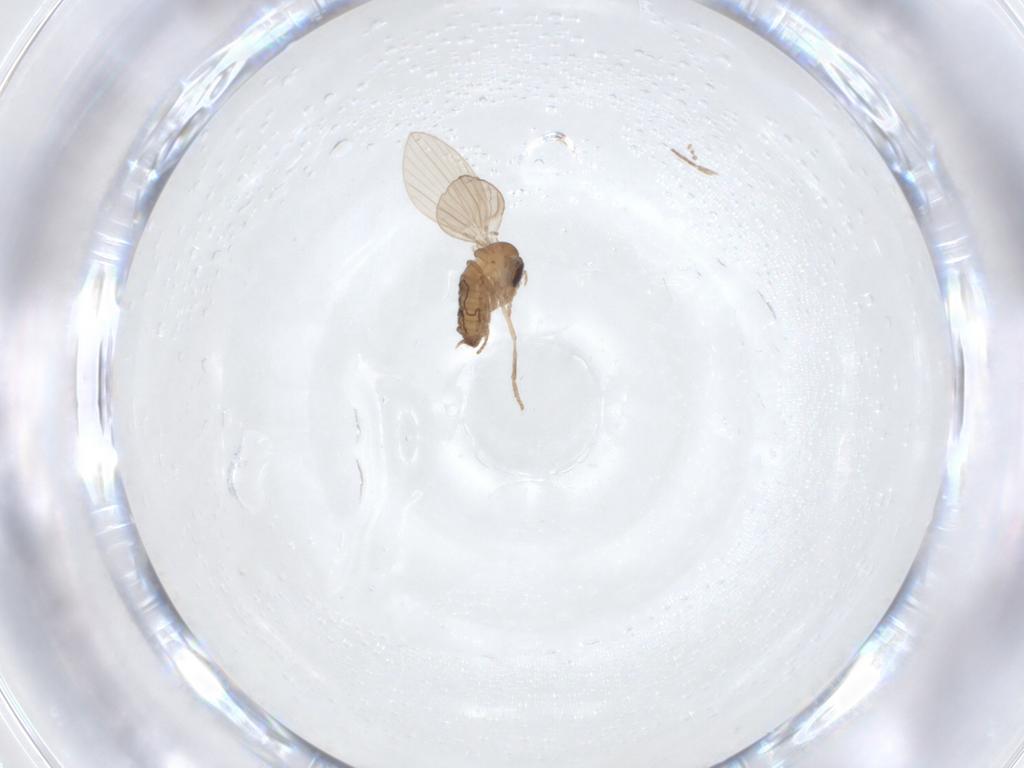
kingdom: Animalia
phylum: Arthropoda
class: Insecta
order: Diptera
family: Psychodidae
